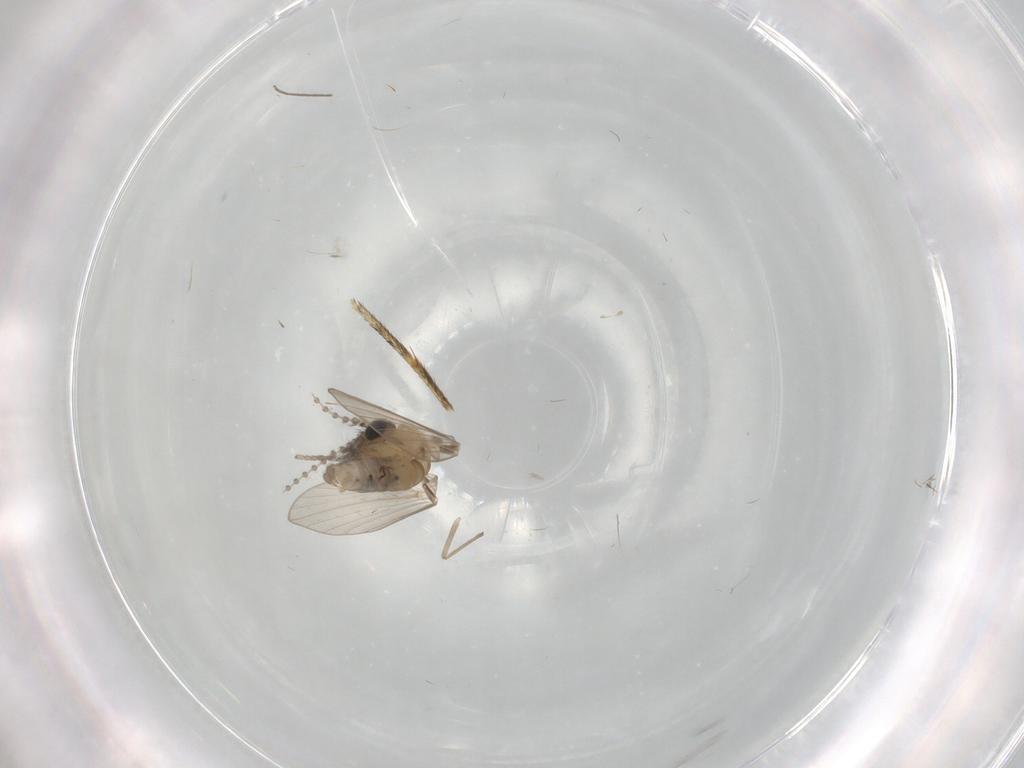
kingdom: Animalia
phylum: Arthropoda
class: Insecta
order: Diptera
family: Psychodidae
